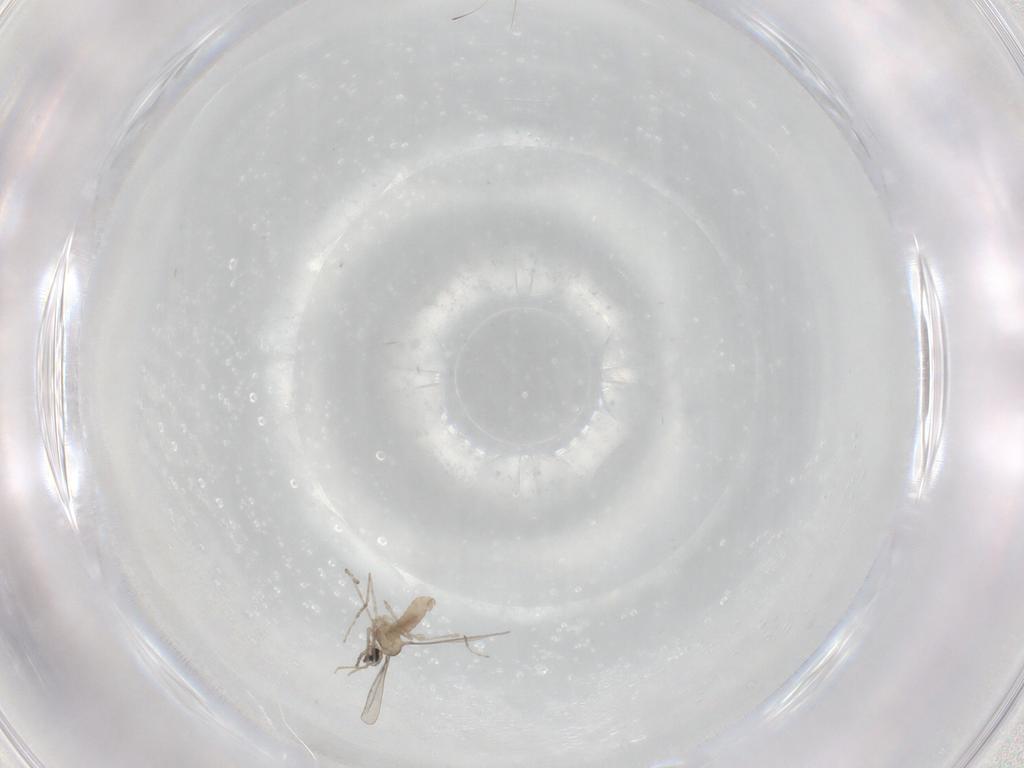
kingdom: Animalia
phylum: Arthropoda
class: Insecta
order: Diptera
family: Cecidomyiidae
